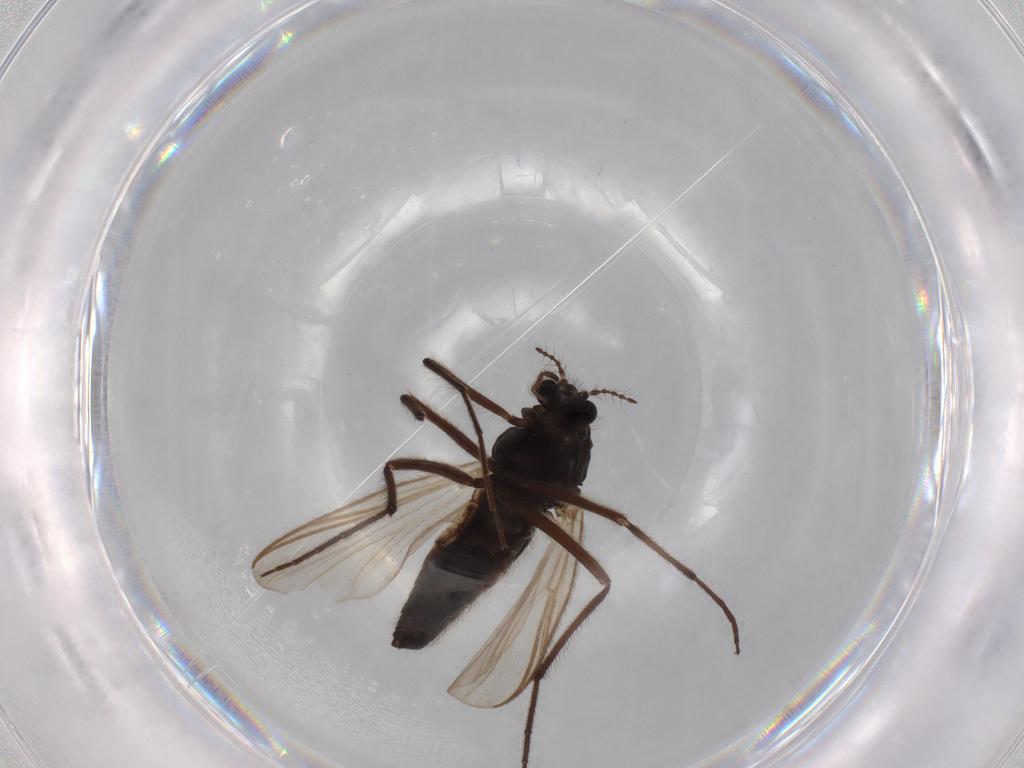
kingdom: Animalia
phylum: Arthropoda
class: Insecta
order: Diptera
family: Sphaeroceridae
